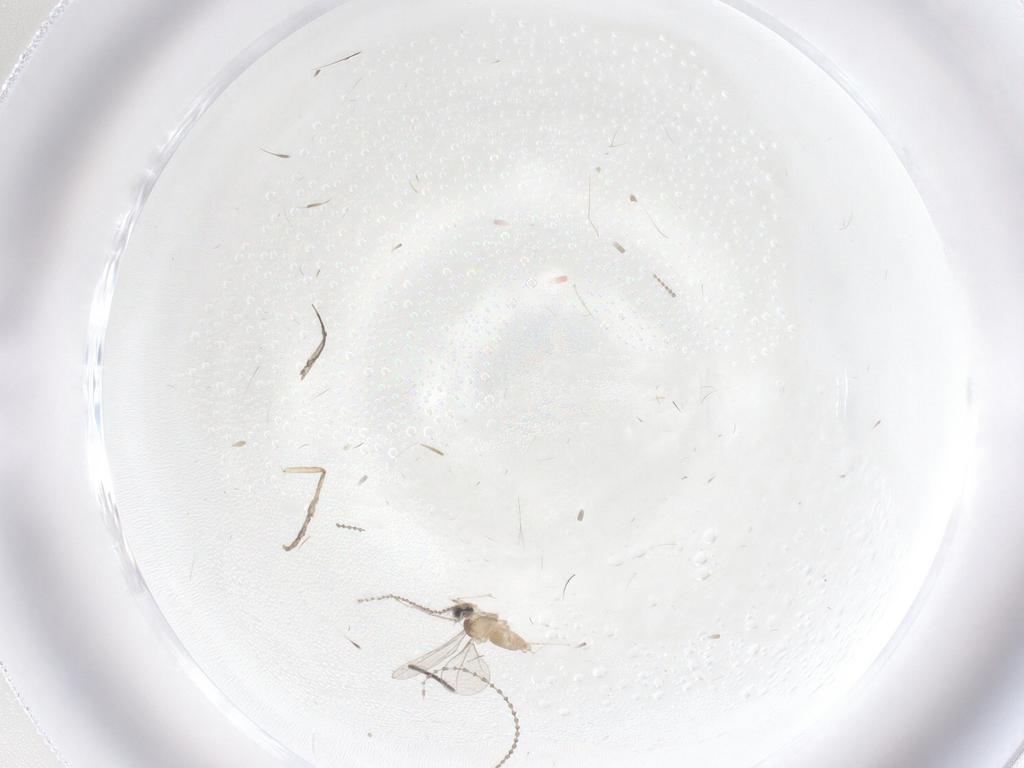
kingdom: Animalia
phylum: Arthropoda
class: Insecta
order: Diptera
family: Cecidomyiidae
